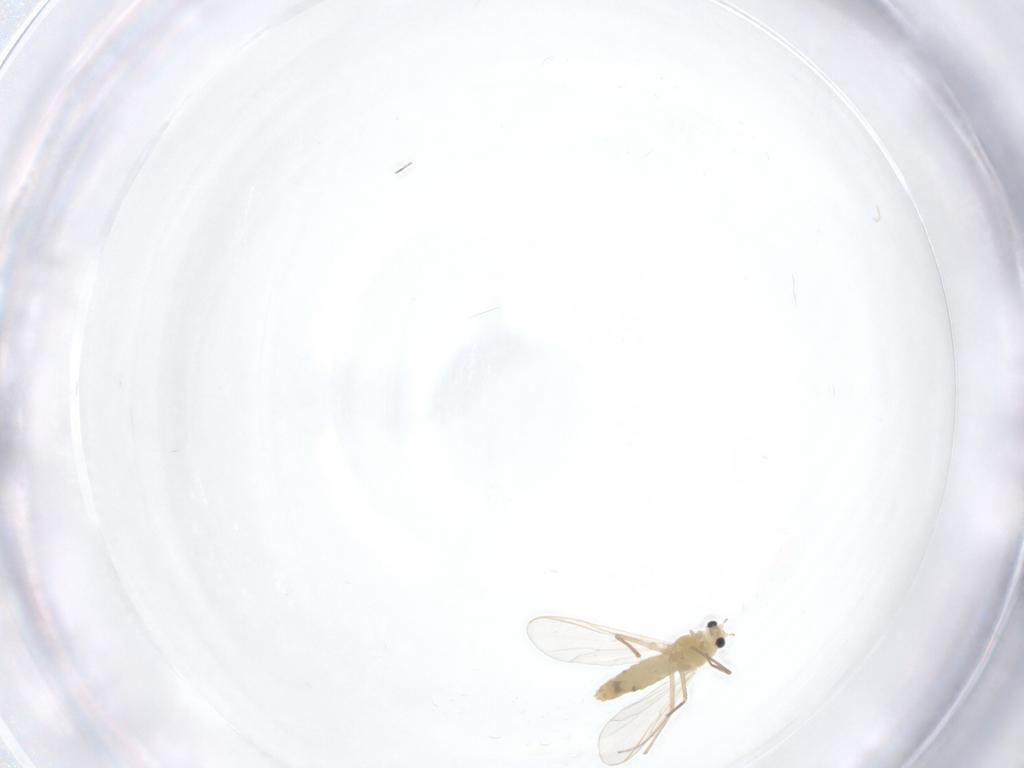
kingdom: Animalia
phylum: Arthropoda
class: Insecta
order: Diptera
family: Chironomidae
